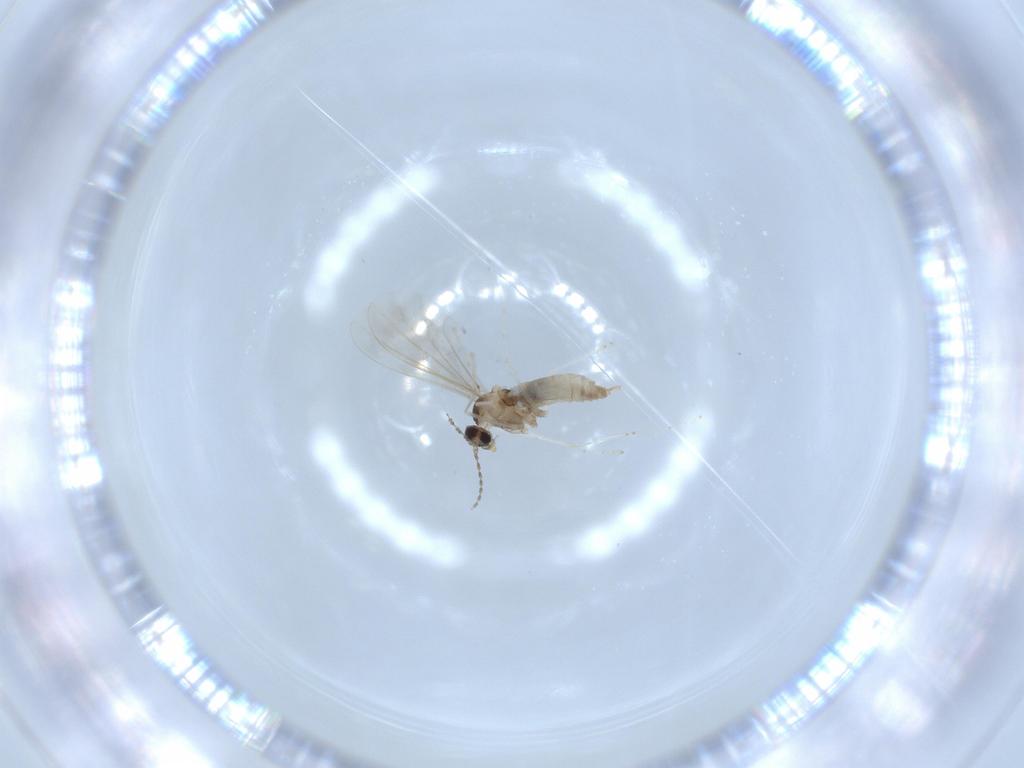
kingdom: Animalia
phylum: Arthropoda
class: Insecta
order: Diptera
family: Cecidomyiidae
